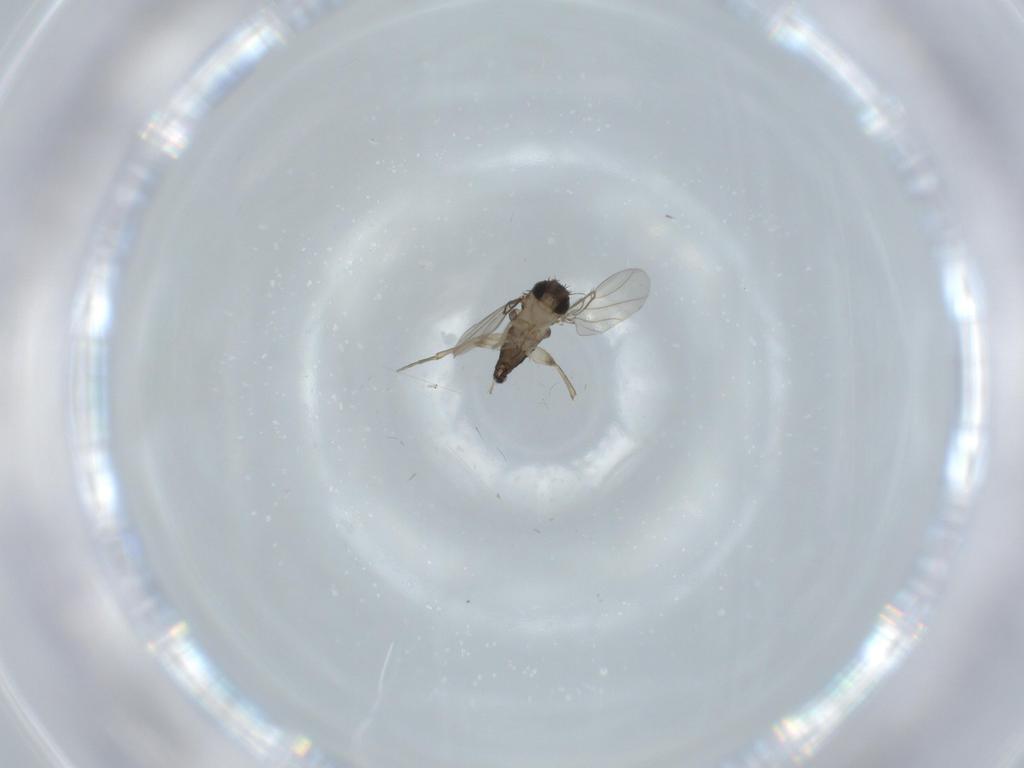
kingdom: Animalia
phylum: Arthropoda
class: Insecta
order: Diptera
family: Phoridae
